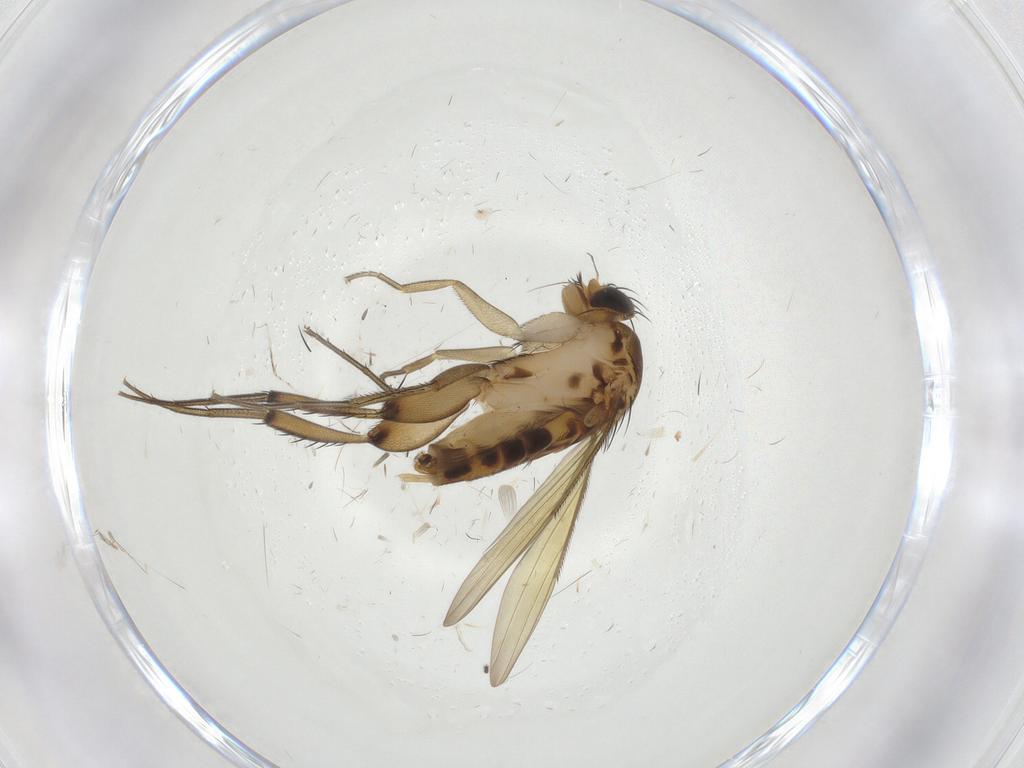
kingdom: Animalia
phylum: Arthropoda
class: Insecta
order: Diptera
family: Phoridae
